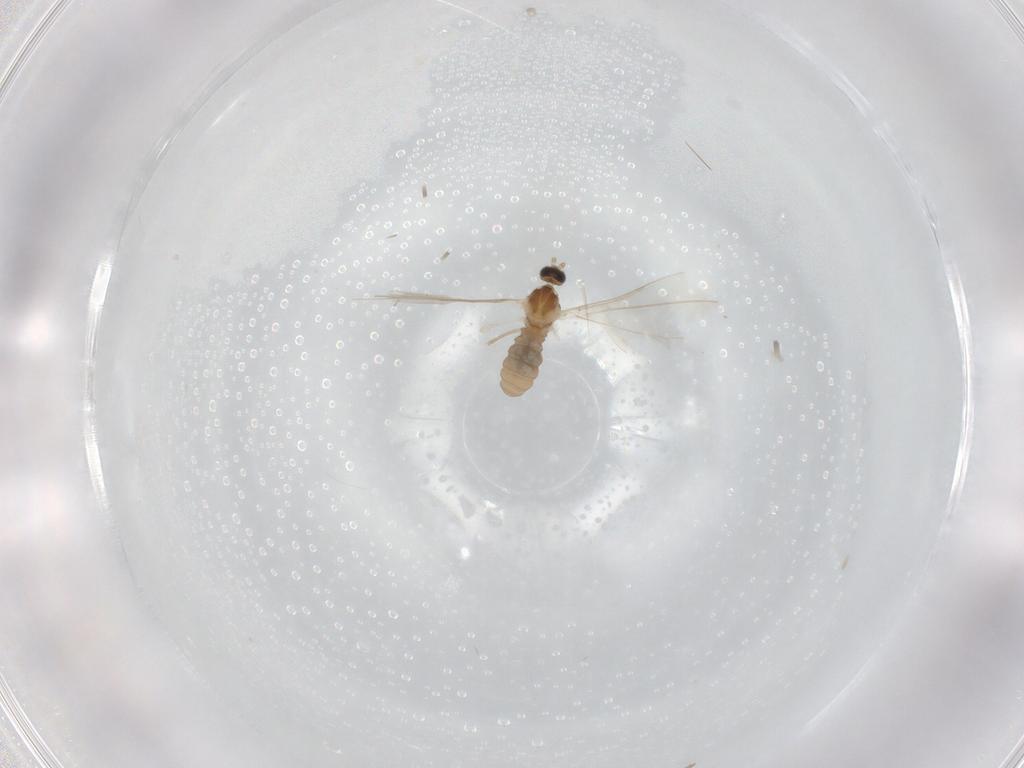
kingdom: Animalia
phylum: Arthropoda
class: Insecta
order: Diptera
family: Cecidomyiidae
